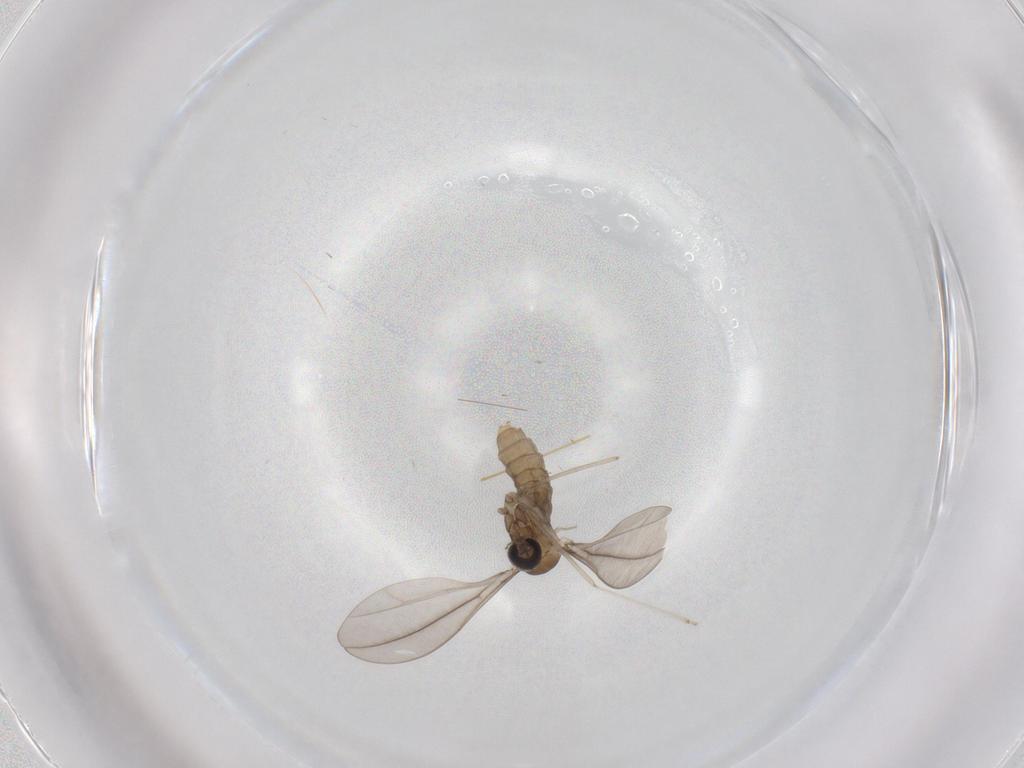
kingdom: Animalia
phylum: Arthropoda
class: Insecta
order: Diptera
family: Cecidomyiidae
